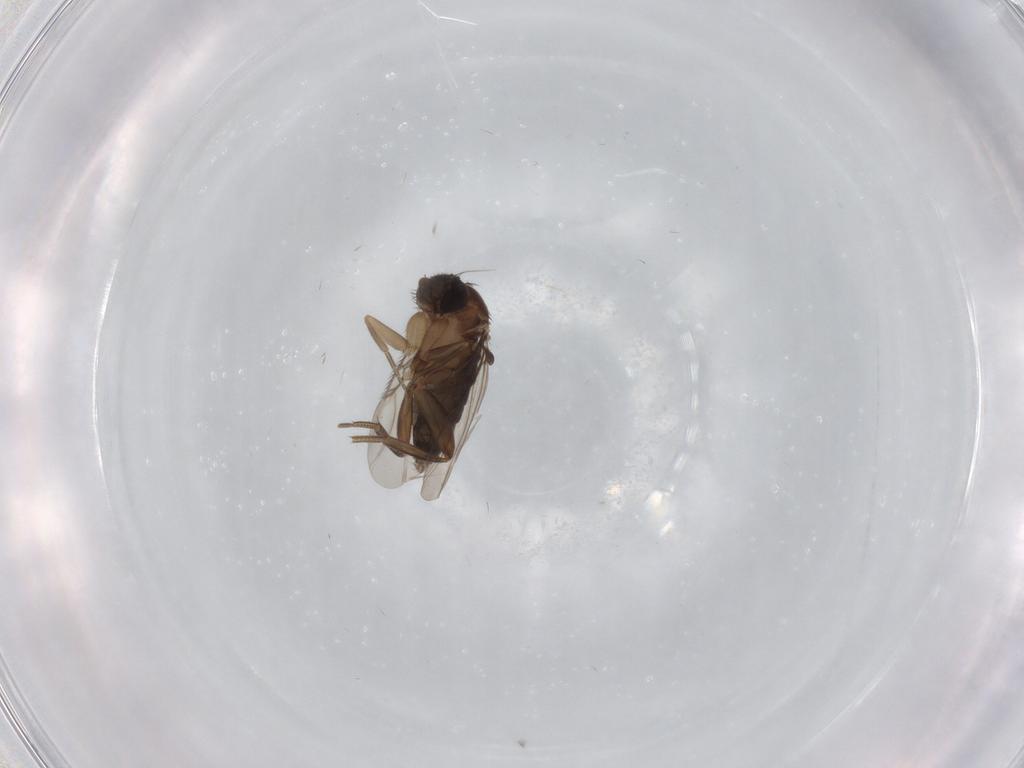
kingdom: Animalia
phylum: Arthropoda
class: Insecta
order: Diptera
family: Phoridae
